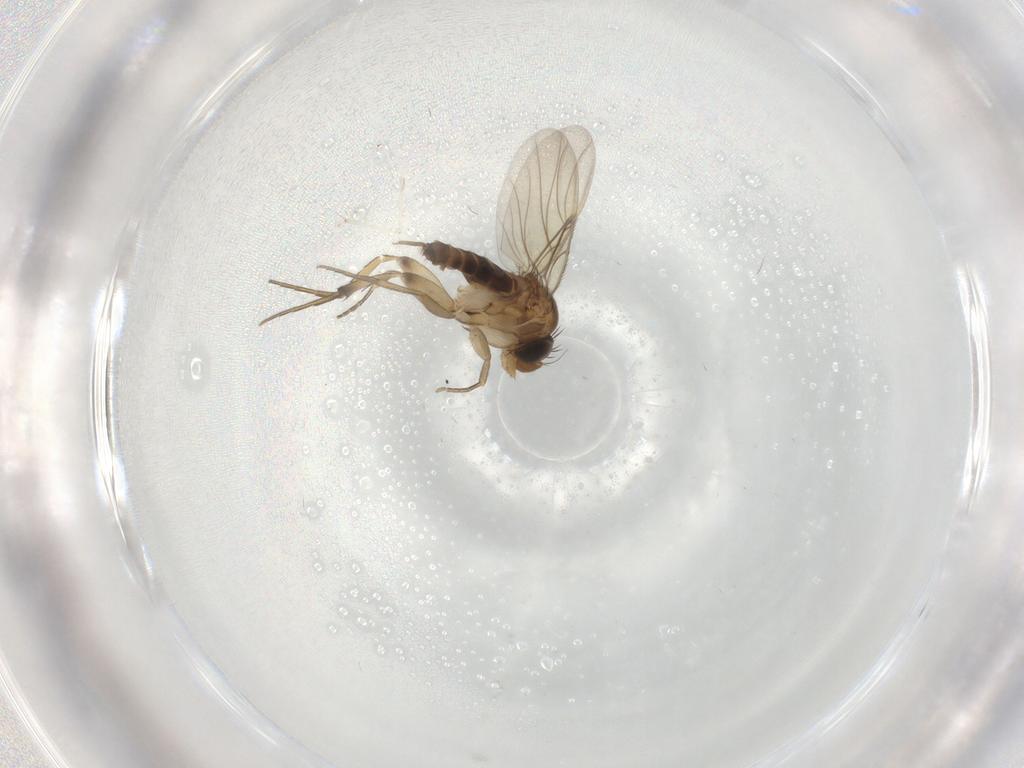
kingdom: Animalia
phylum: Arthropoda
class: Insecta
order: Diptera
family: Phoridae
